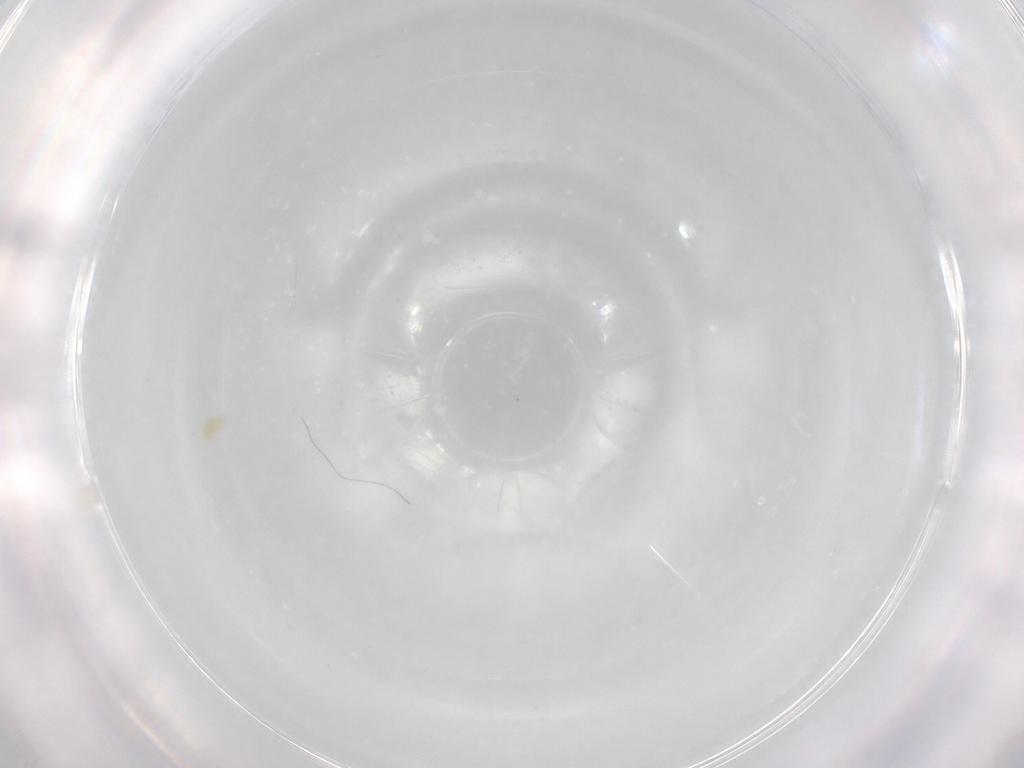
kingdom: Animalia
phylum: Arthropoda
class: Arachnida
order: Trombidiformes
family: Eupodidae
